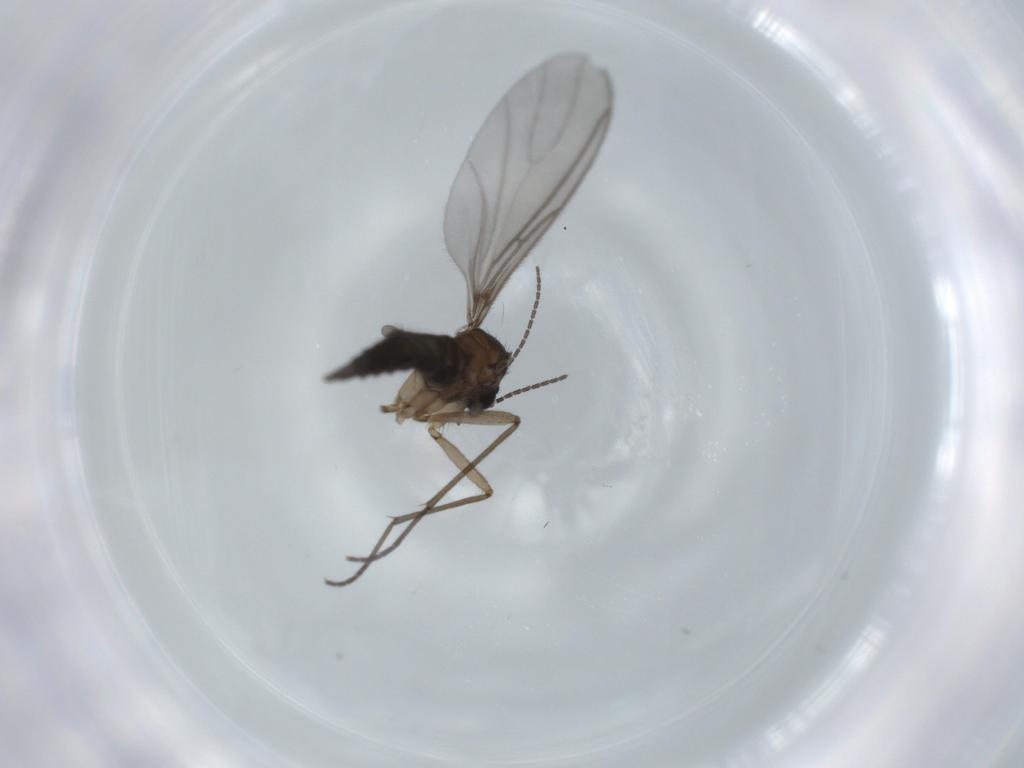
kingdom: Animalia
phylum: Arthropoda
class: Insecta
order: Diptera
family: Sciaridae
